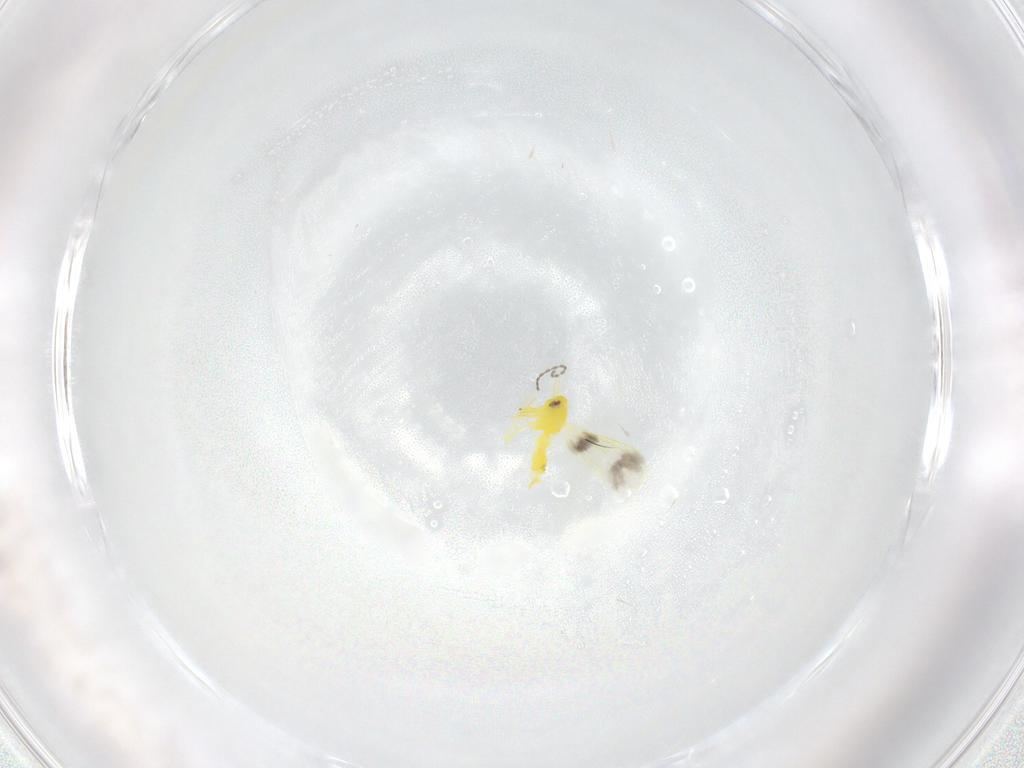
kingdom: Animalia
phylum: Arthropoda
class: Insecta
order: Hemiptera
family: Aleyrodidae
